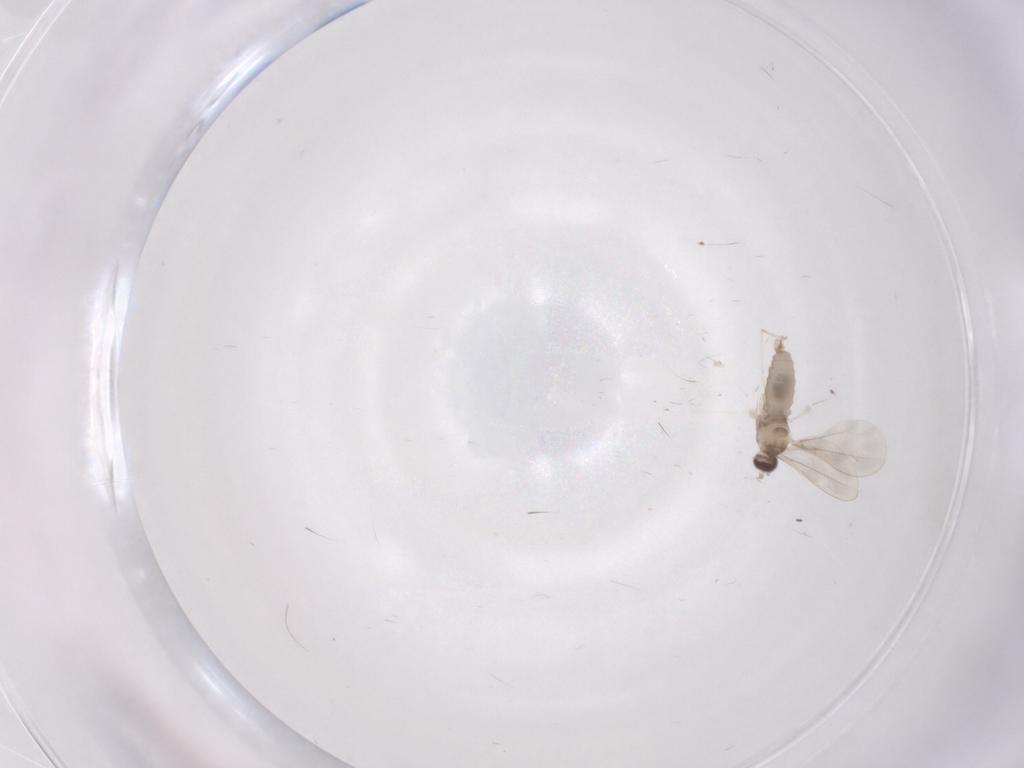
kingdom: Animalia
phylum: Arthropoda
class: Insecta
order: Diptera
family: Cecidomyiidae
